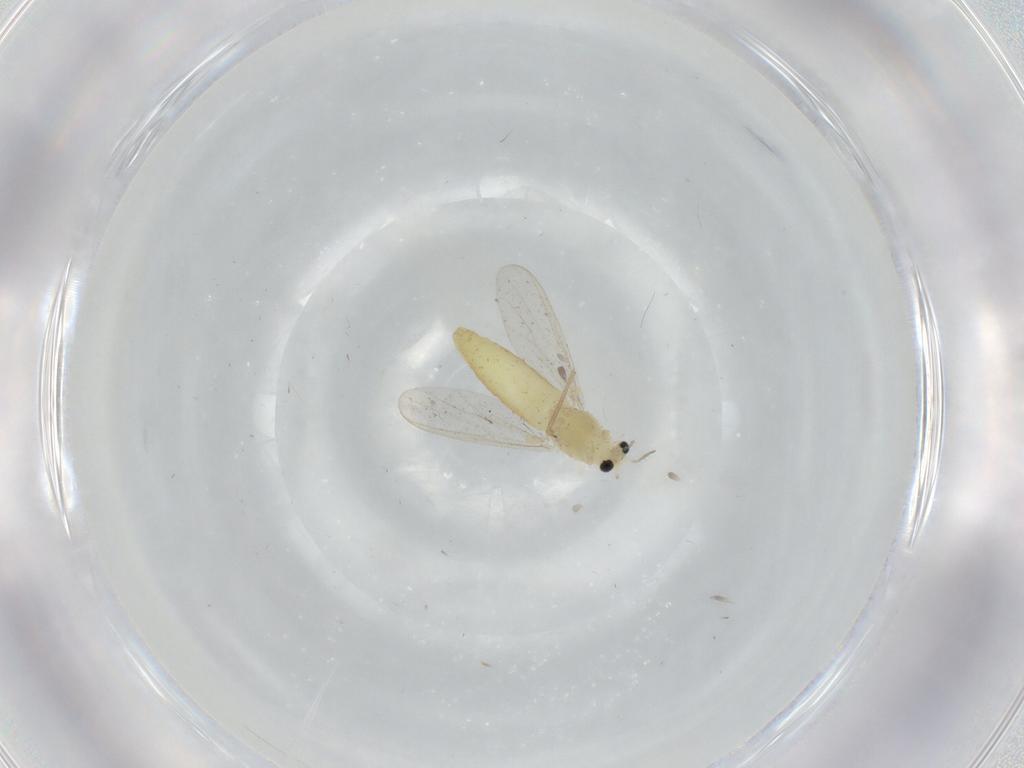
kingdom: Animalia
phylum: Arthropoda
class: Insecta
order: Diptera
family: Chironomidae
